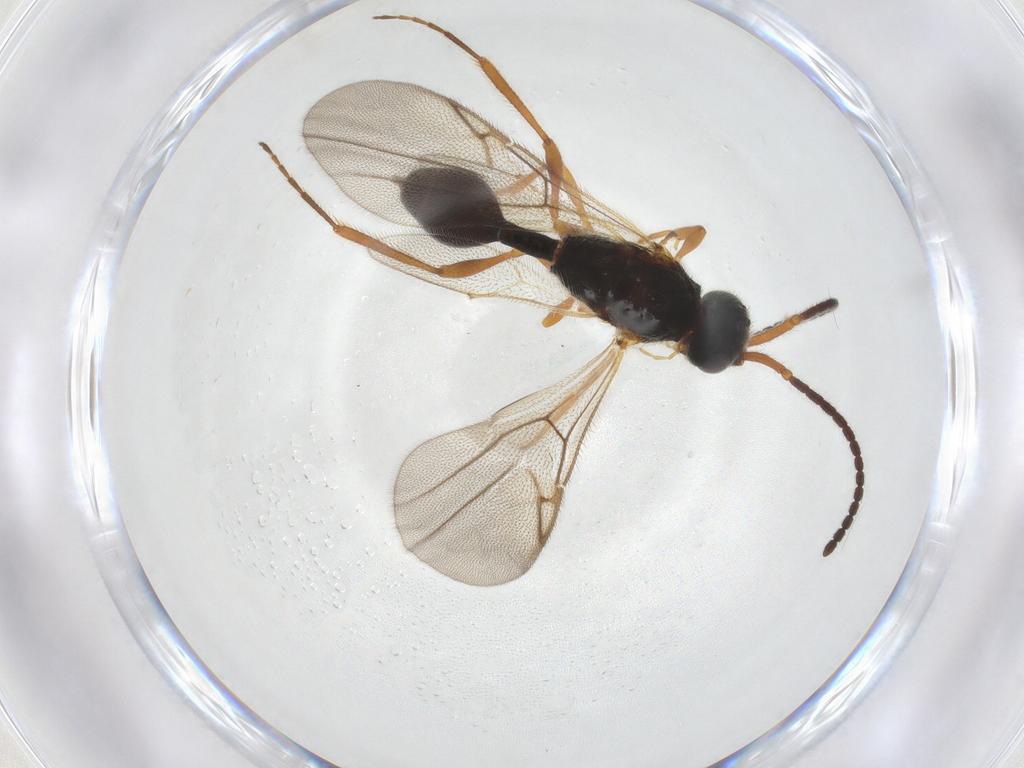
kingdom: Animalia
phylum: Arthropoda
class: Insecta
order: Hymenoptera
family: Diapriidae
